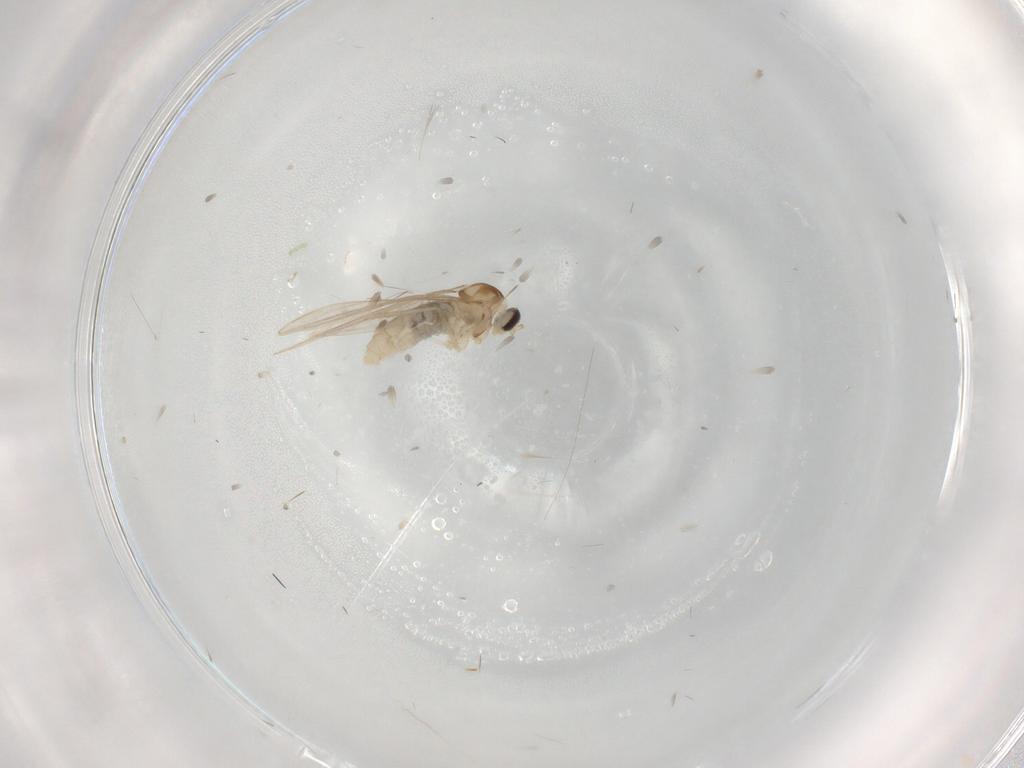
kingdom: Animalia
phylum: Arthropoda
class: Insecta
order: Diptera
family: Cecidomyiidae
